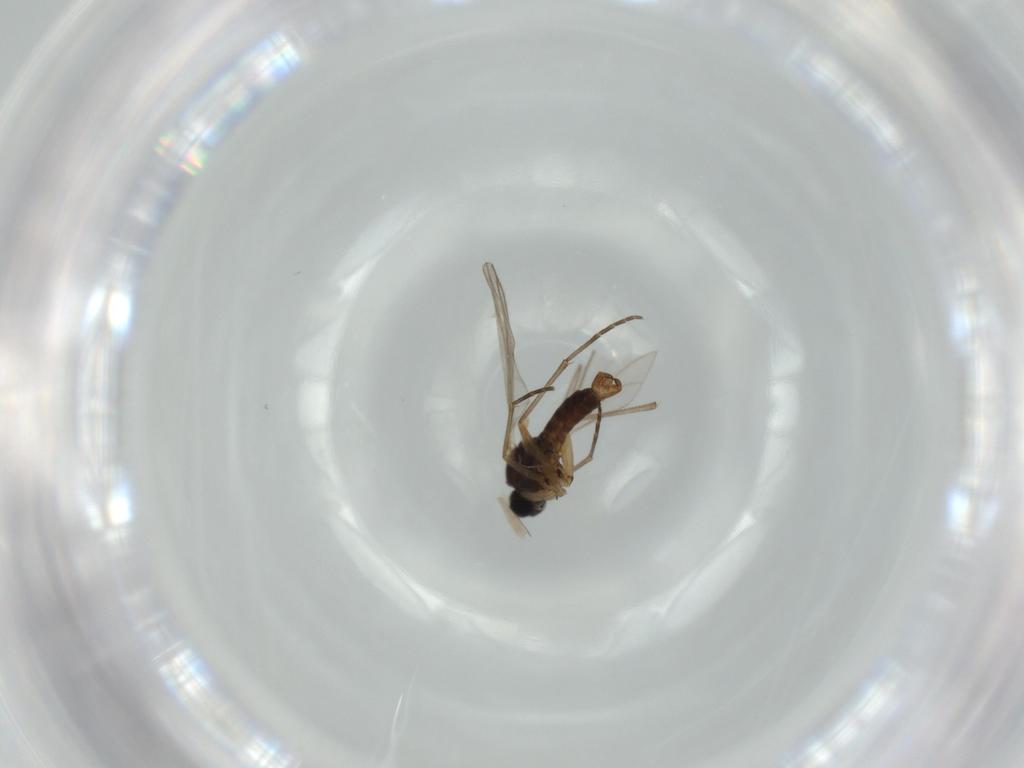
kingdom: Animalia
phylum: Arthropoda
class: Insecta
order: Diptera
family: Sciaridae
